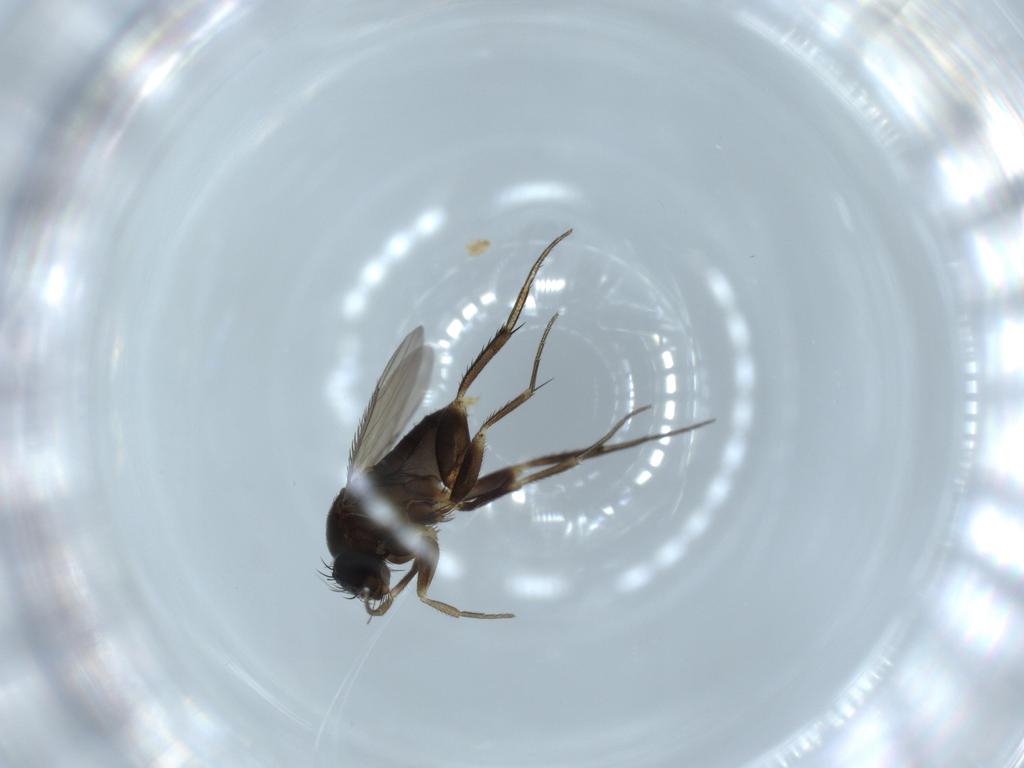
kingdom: Animalia
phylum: Arthropoda
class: Insecta
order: Diptera
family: Phoridae
